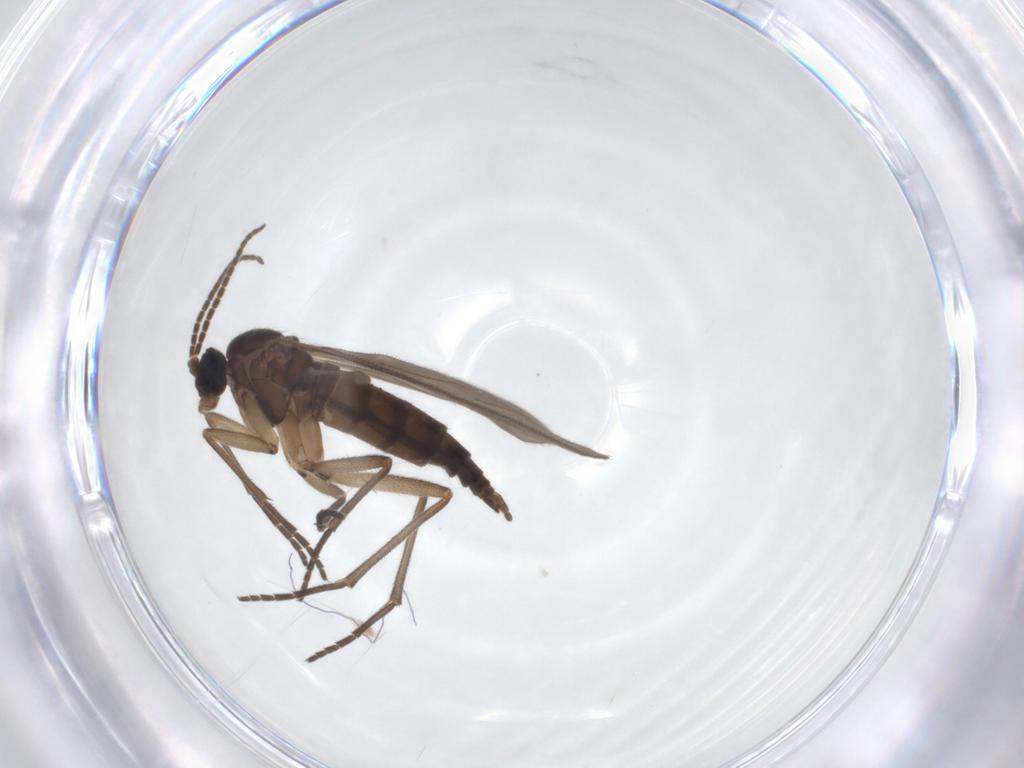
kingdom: Animalia
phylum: Arthropoda
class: Insecta
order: Diptera
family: Sciaridae
